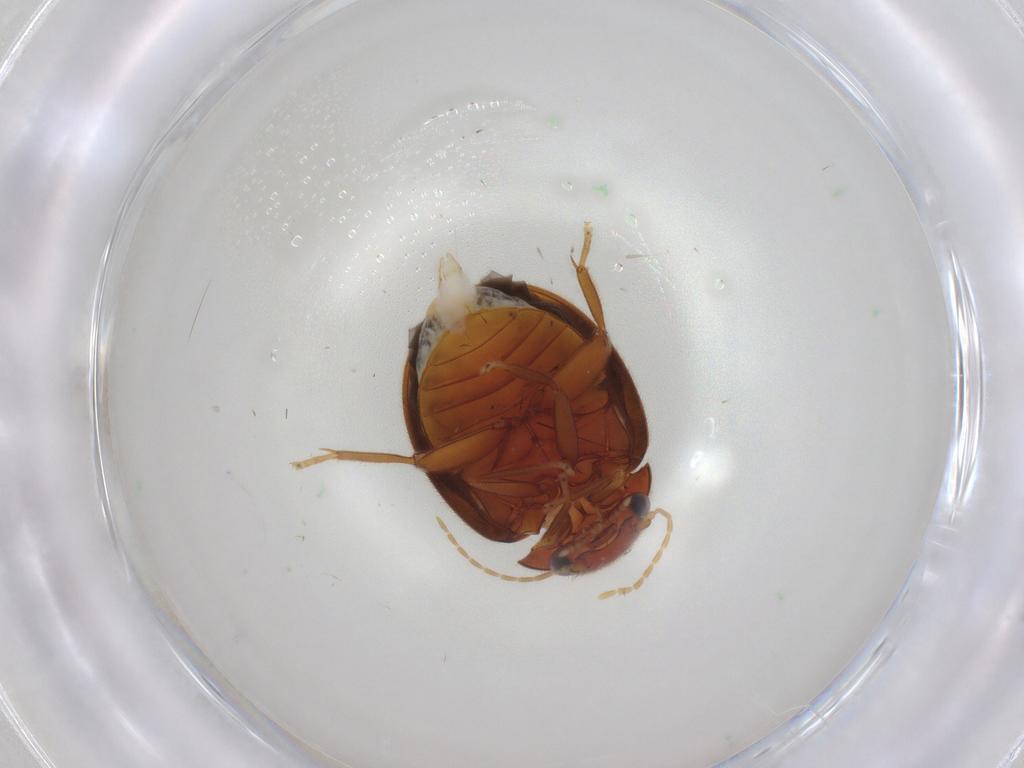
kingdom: Animalia
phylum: Arthropoda
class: Insecta
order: Coleoptera
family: Scirtidae
